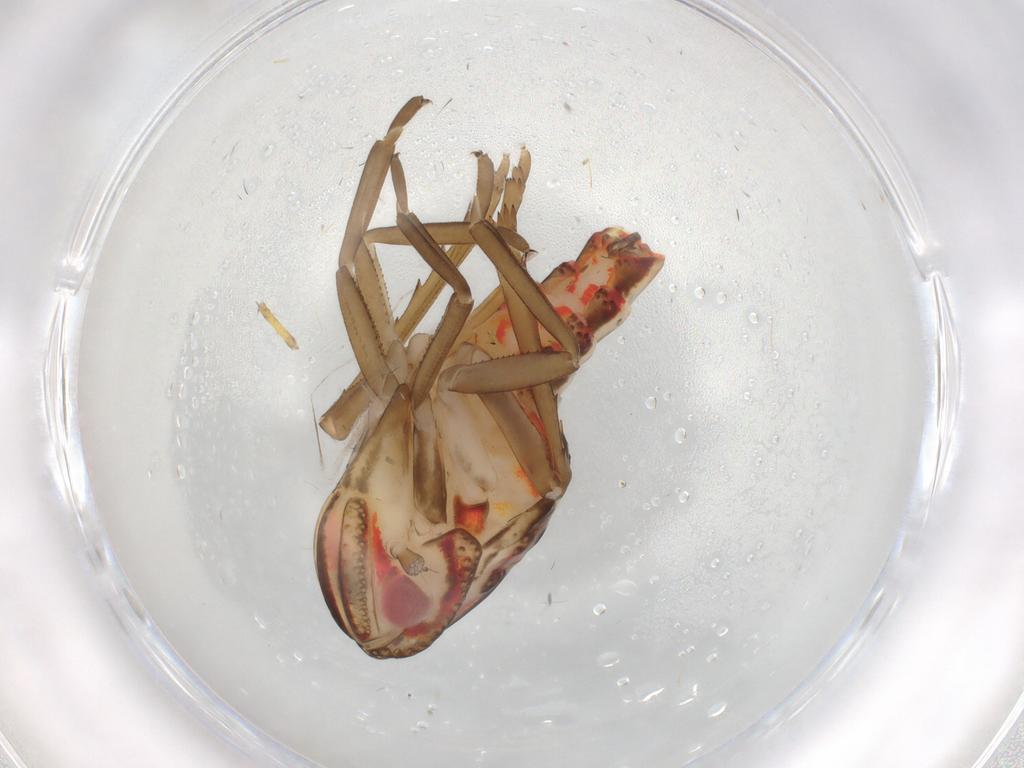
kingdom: Animalia
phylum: Arthropoda
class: Insecta
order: Hemiptera
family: Nogodinidae
